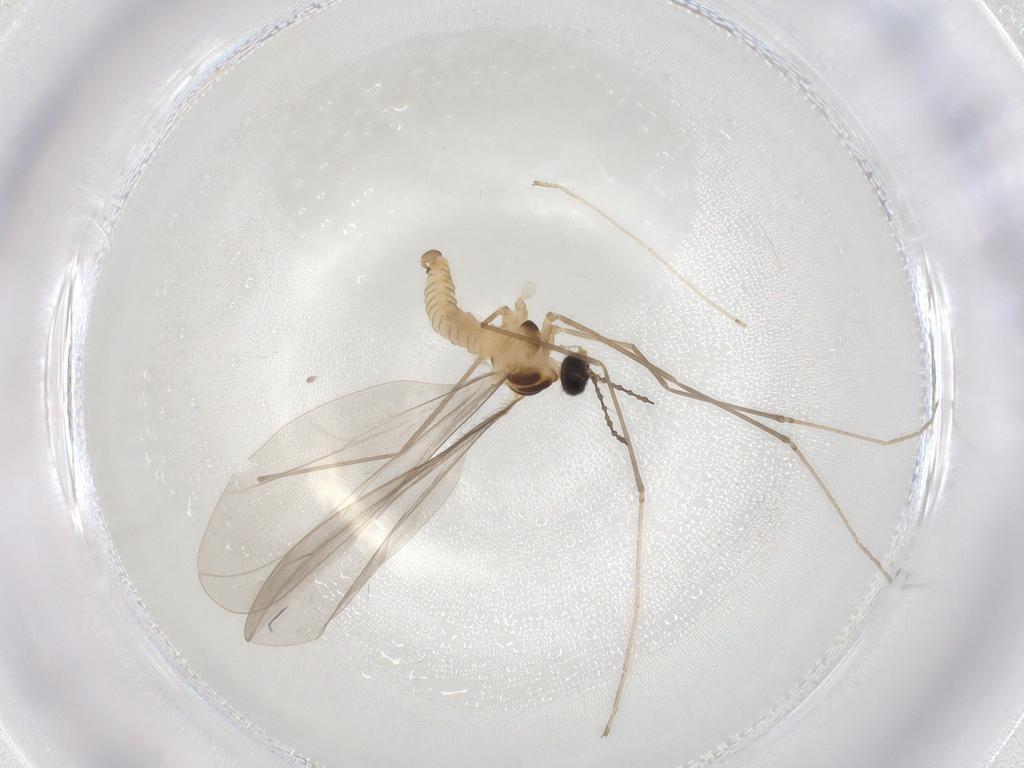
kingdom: Animalia
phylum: Arthropoda
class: Insecta
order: Diptera
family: Cecidomyiidae
